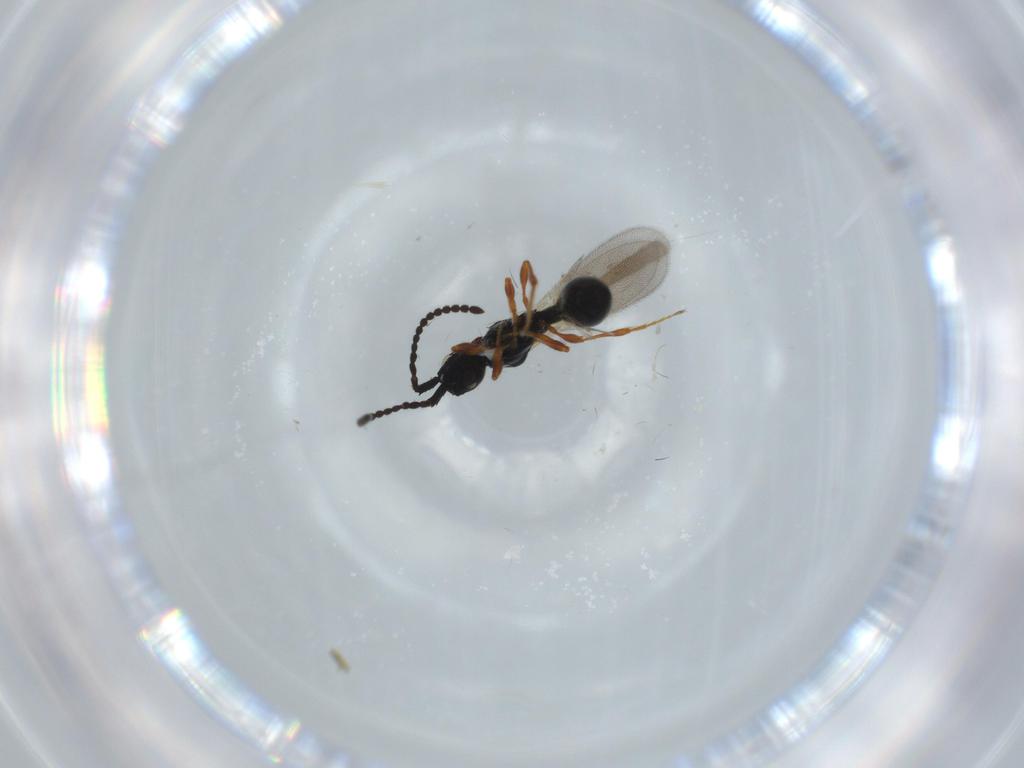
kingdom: Animalia
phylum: Arthropoda
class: Insecta
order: Hymenoptera
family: Diapriidae
